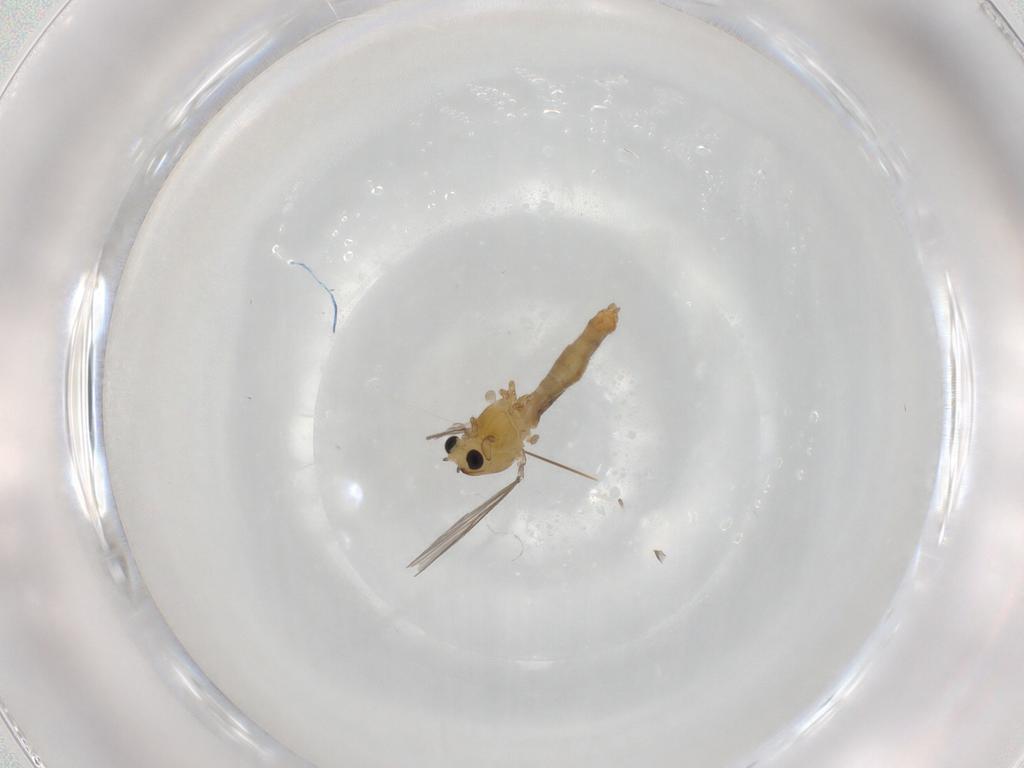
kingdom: Animalia
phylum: Arthropoda
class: Insecta
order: Diptera
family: Chironomidae
